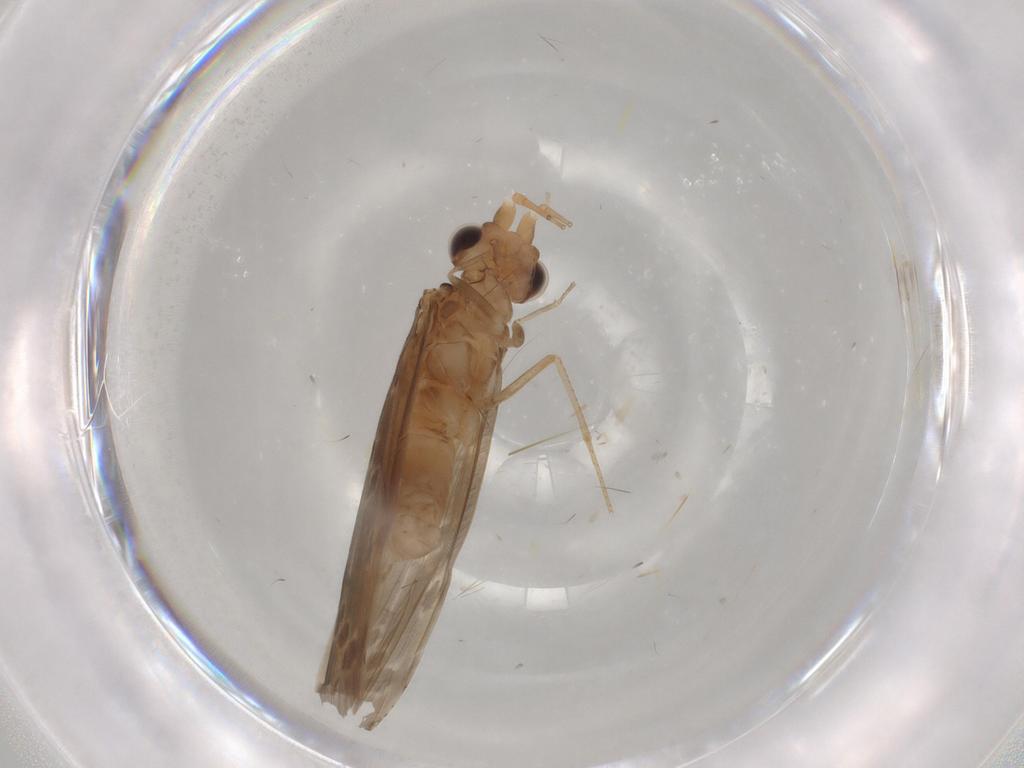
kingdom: Animalia
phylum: Arthropoda
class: Insecta
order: Trichoptera
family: Leptoceridae
